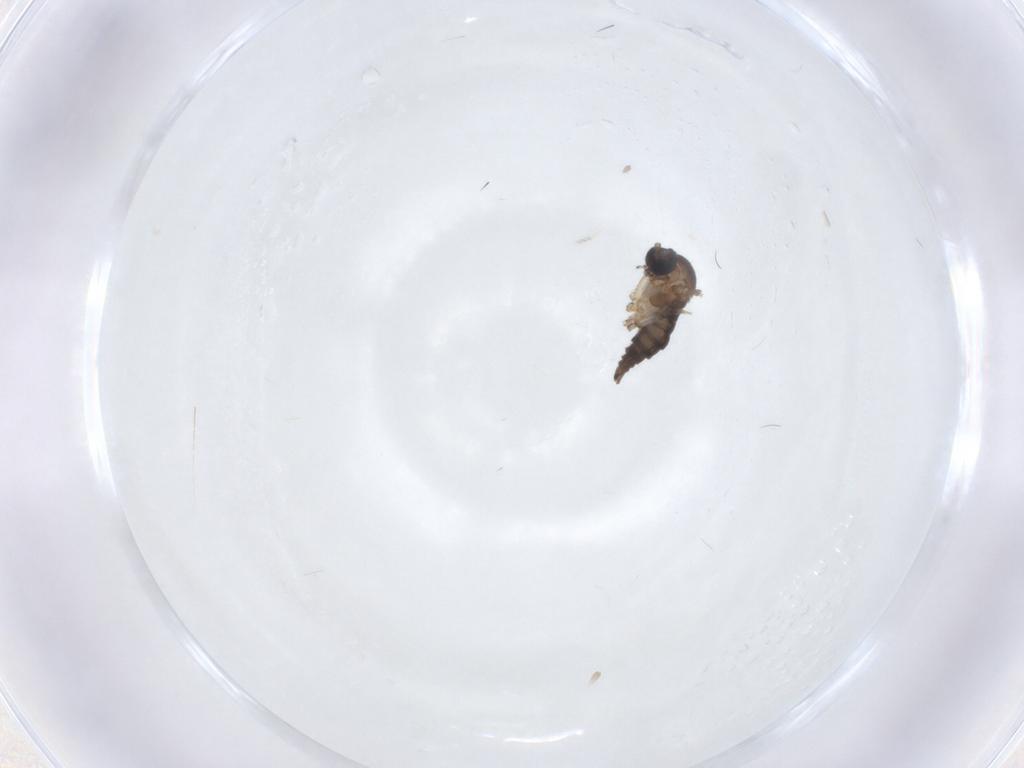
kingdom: Animalia
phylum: Arthropoda
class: Insecta
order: Diptera
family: Sciaridae
